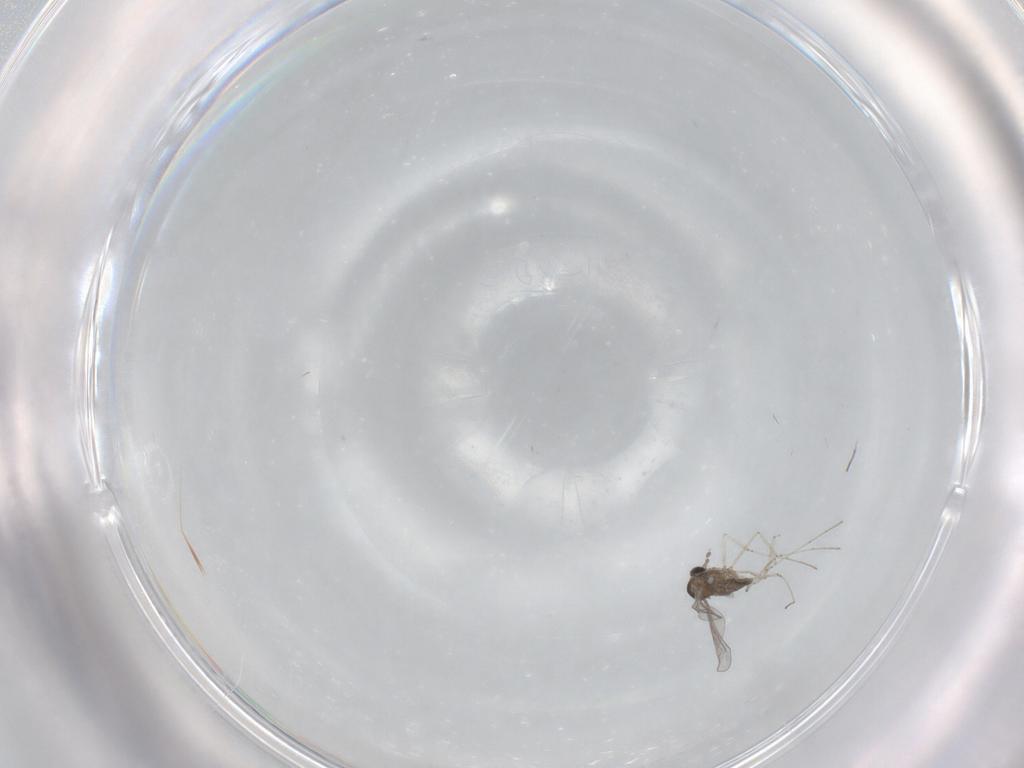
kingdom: Animalia
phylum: Arthropoda
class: Insecta
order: Diptera
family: Cecidomyiidae
